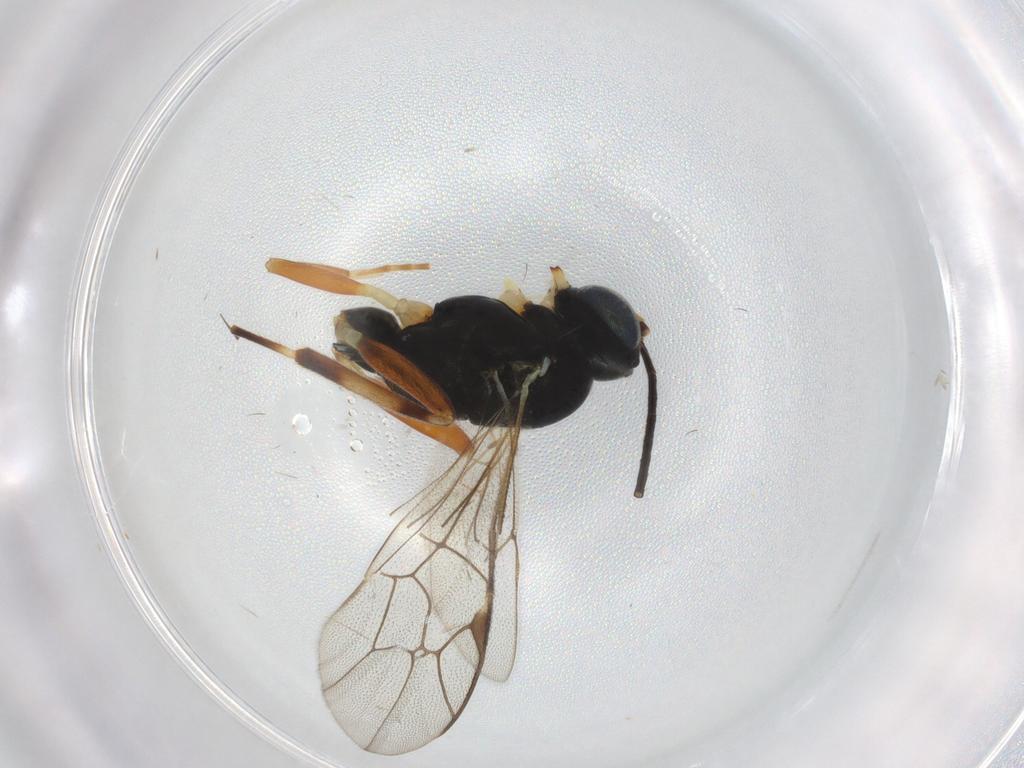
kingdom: Animalia
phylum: Arthropoda
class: Insecta
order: Hymenoptera
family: Ichneumonidae
